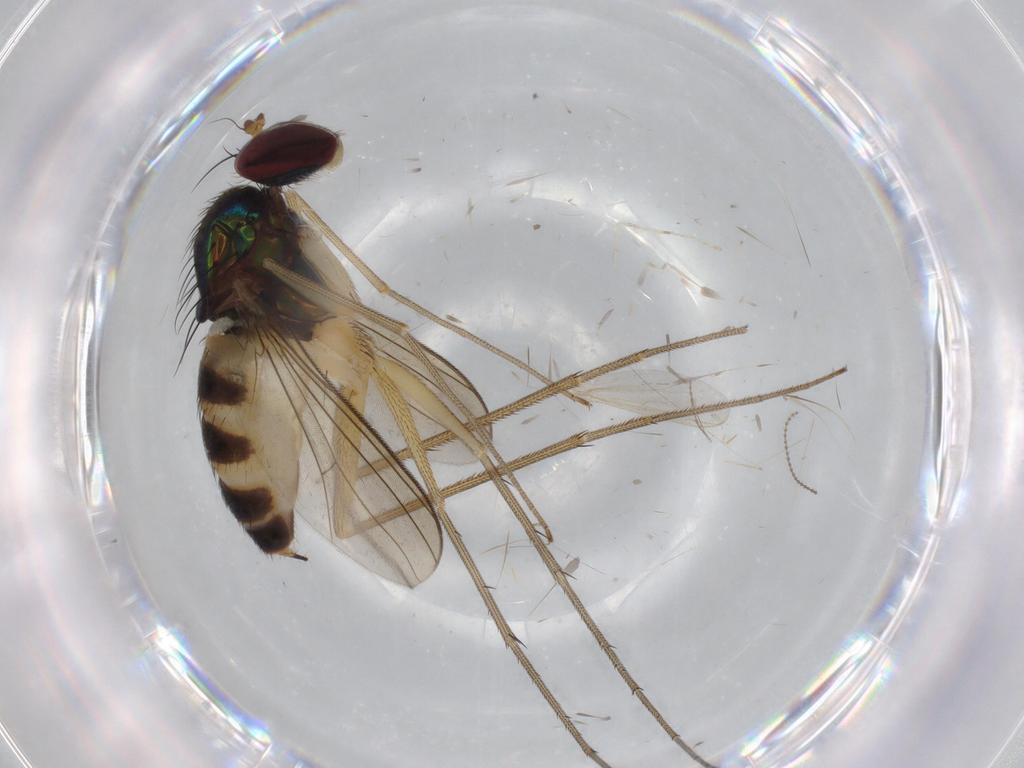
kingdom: Animalia
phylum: Arthropoda
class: Insecta
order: Diptera
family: Dolichopodidae
